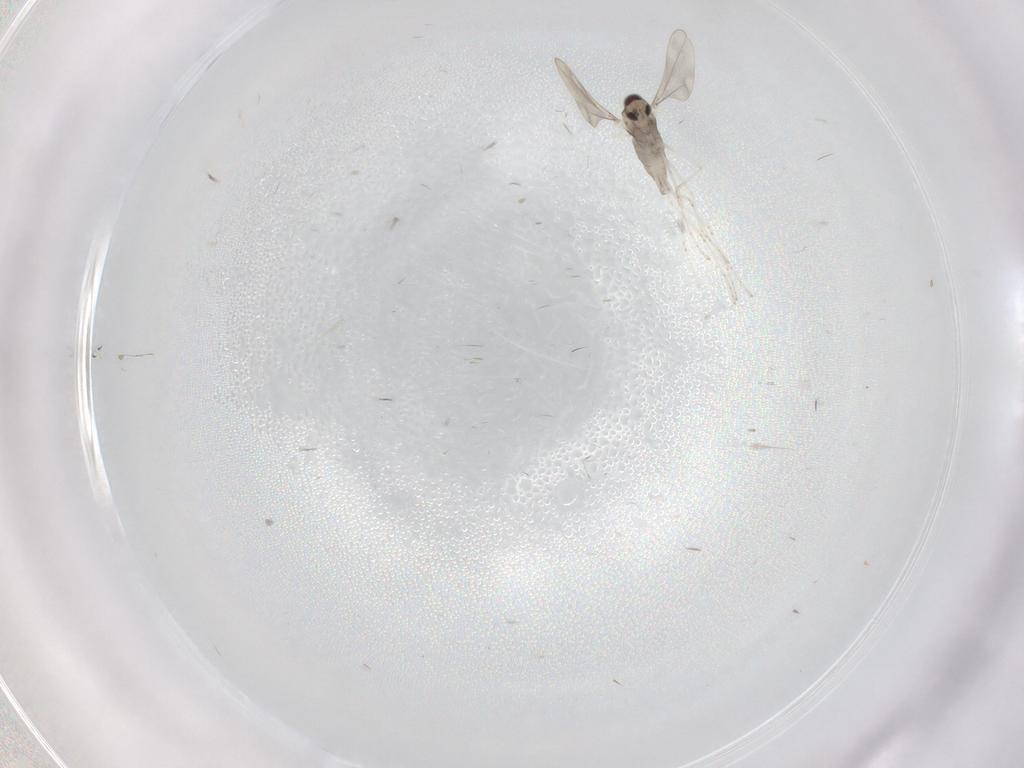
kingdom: Animalia
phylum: Arthropoda
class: Insecta
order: Diptera
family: Cecidomyiidae
